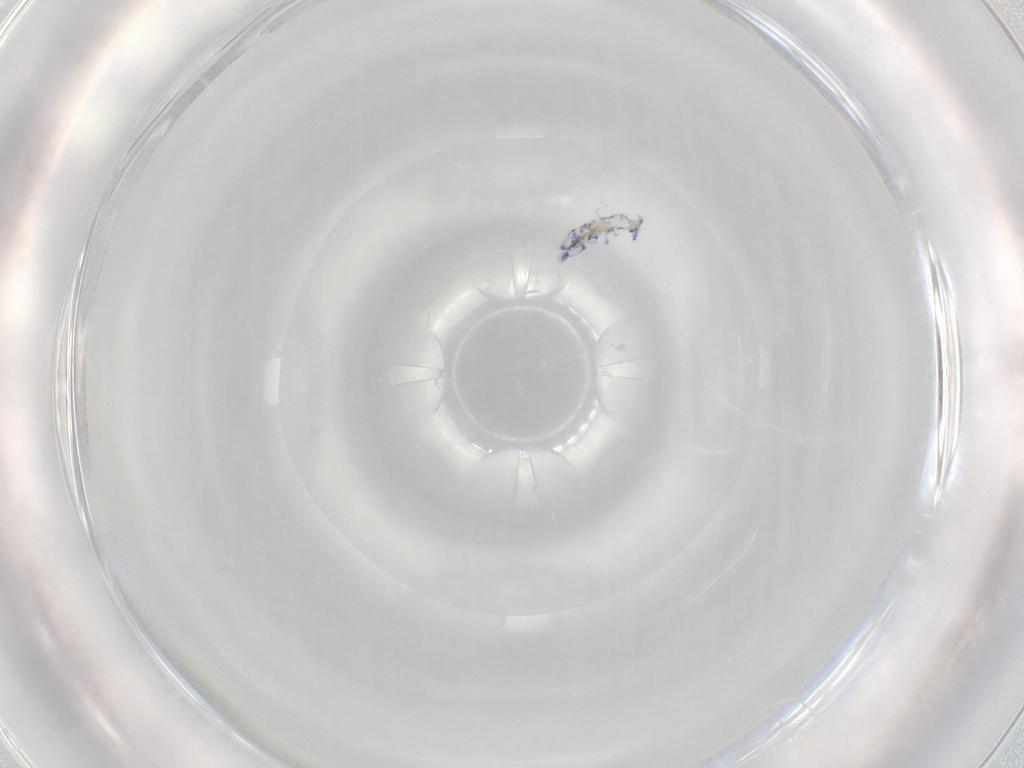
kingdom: Animalia
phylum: Arthropoda
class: Collembola
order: Entomobryomorpha
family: Entomobryidae
